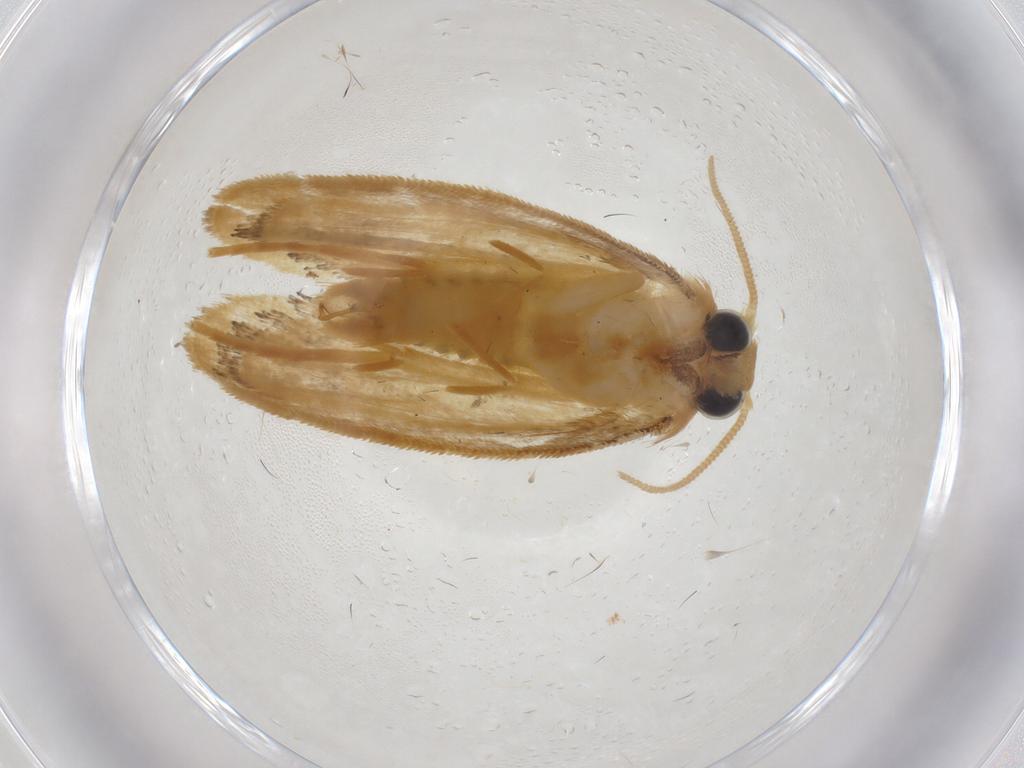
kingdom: Animalia
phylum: Arthropoda
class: Insecta
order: Lepidoptera
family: Psychidae
